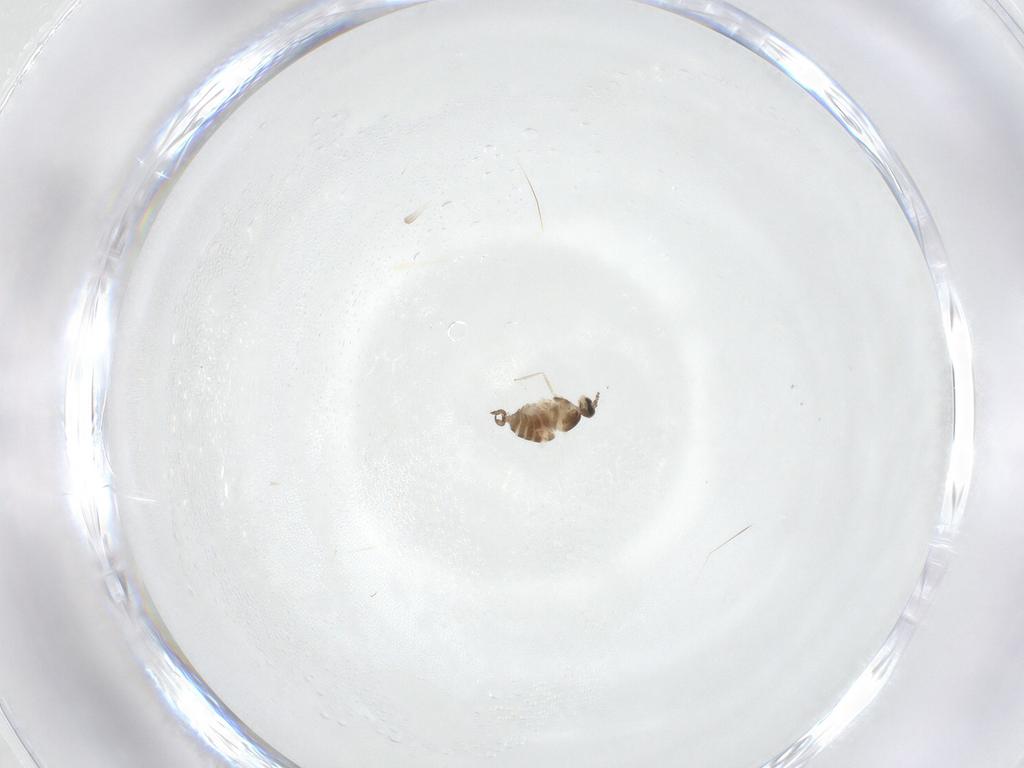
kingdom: Animalia
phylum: Arthropoda
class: Insecta
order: Diptera
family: Cecidomyiidae
